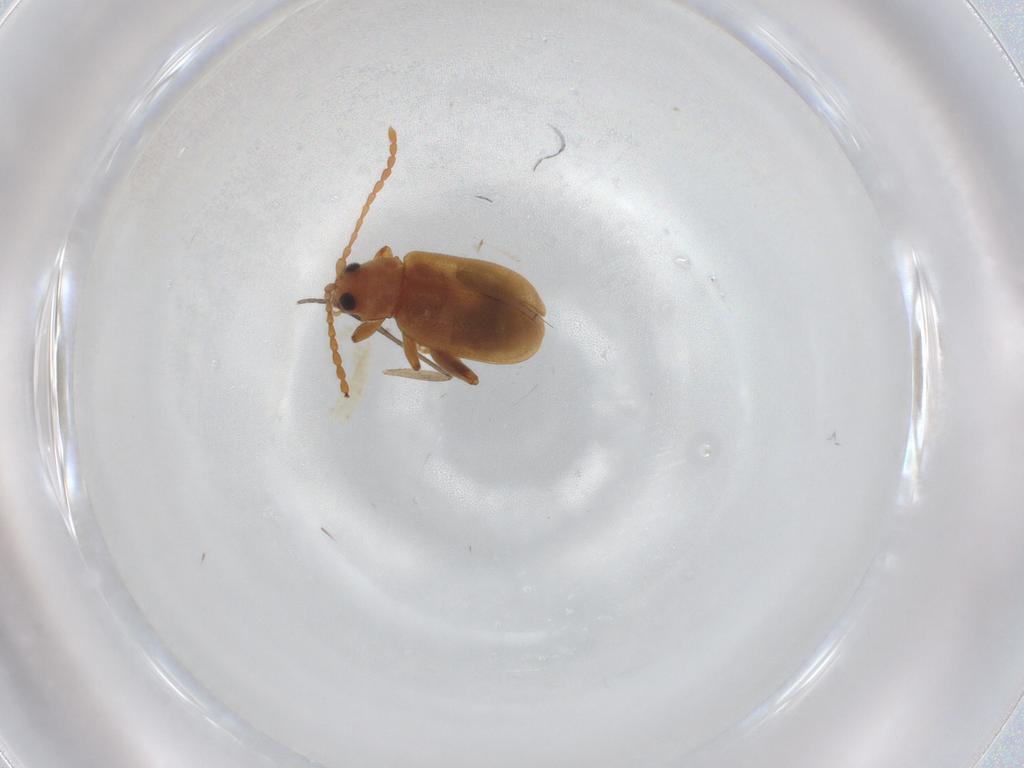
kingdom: Animalia
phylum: Arthropoda
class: Insecta
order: Coleoptera
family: Chrysomelidae
